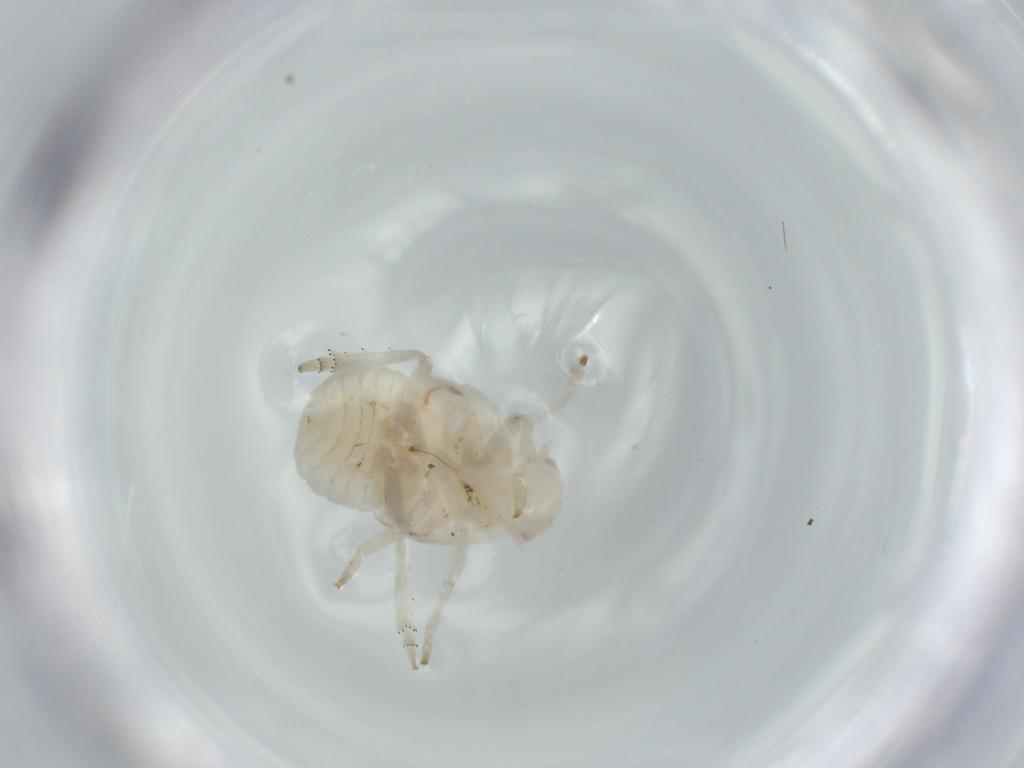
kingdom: Animalia
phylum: Arthropoda
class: Insecta
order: Hemiptera
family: Flatidae
